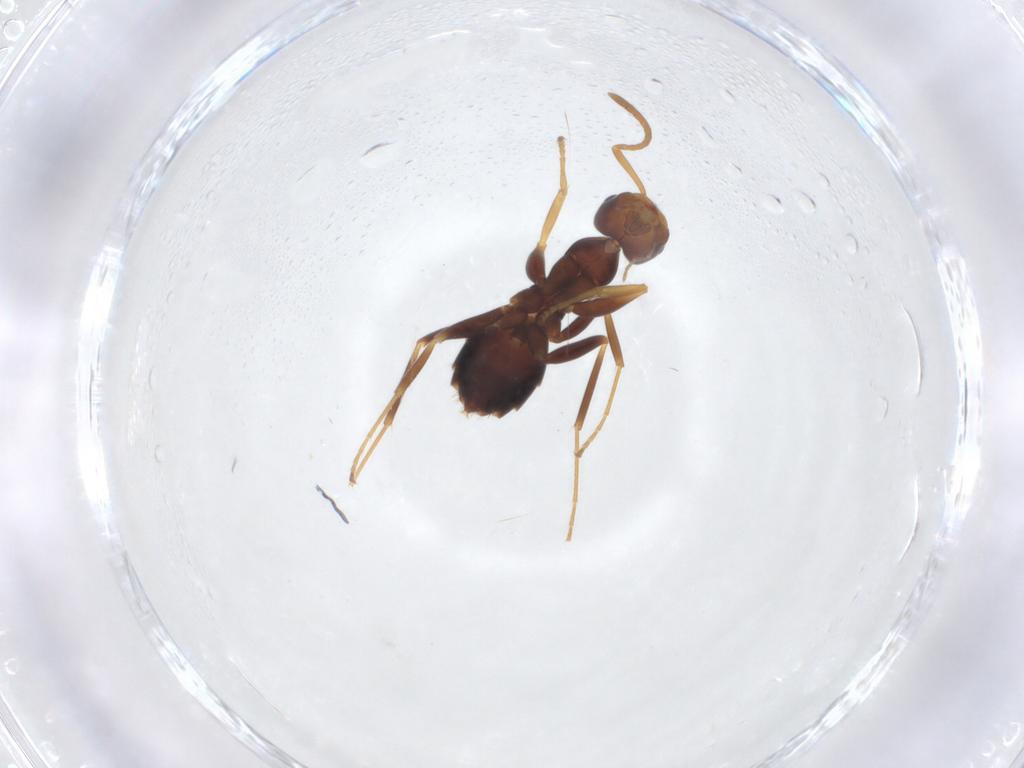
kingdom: Animalia
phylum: Arthropoda
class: Insecta
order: Hymenoptera
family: Formicidae
